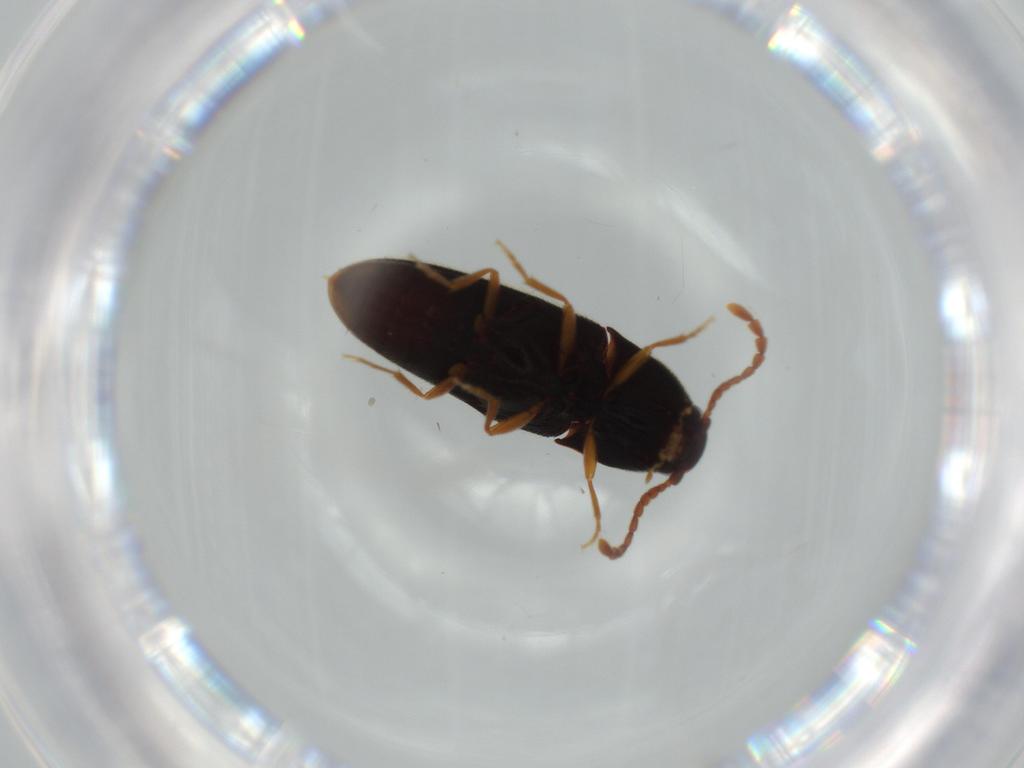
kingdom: Animalia
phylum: Arthropoda
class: Insecta
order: Coleoptera
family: Elateridae
